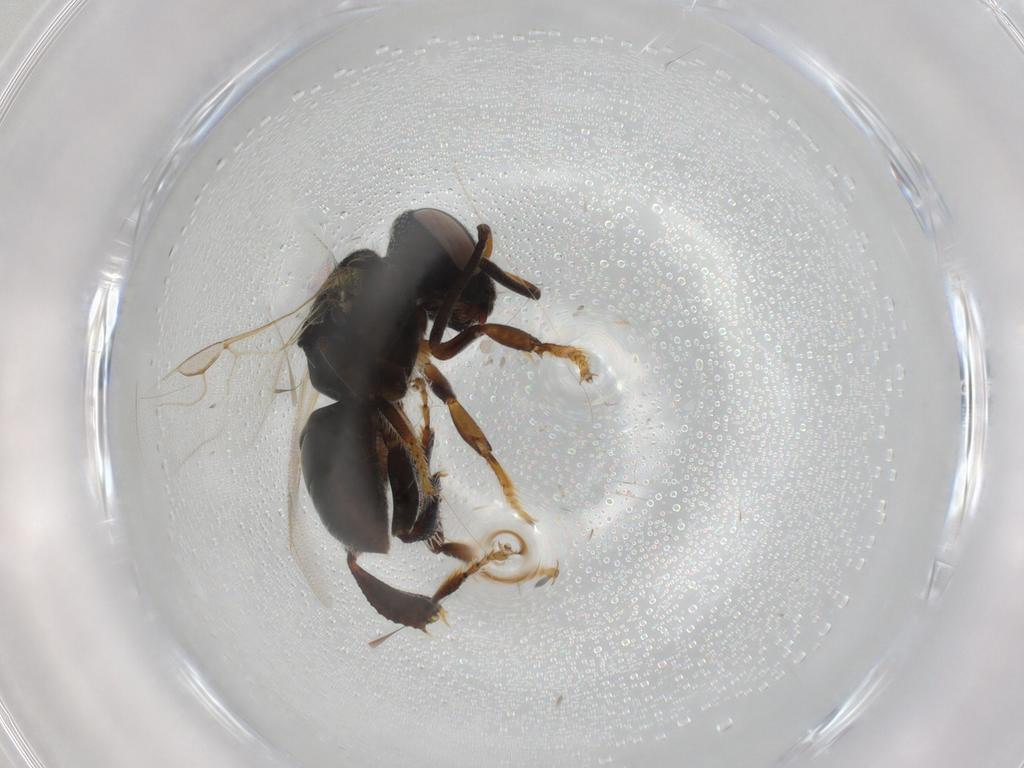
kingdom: Animalia
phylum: Arthropoda
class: Insecta
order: Hymenoptera
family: Apidae
